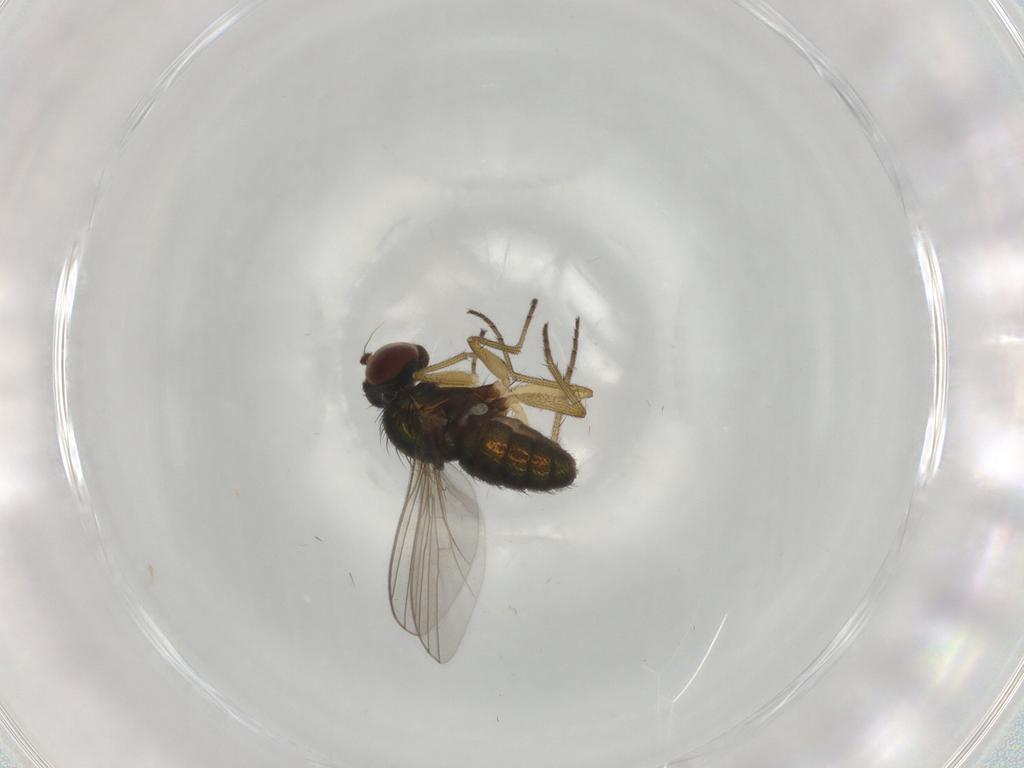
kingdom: Animalia
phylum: Arthropoda
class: Insecta
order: Diptera
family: Dolichopodidae
